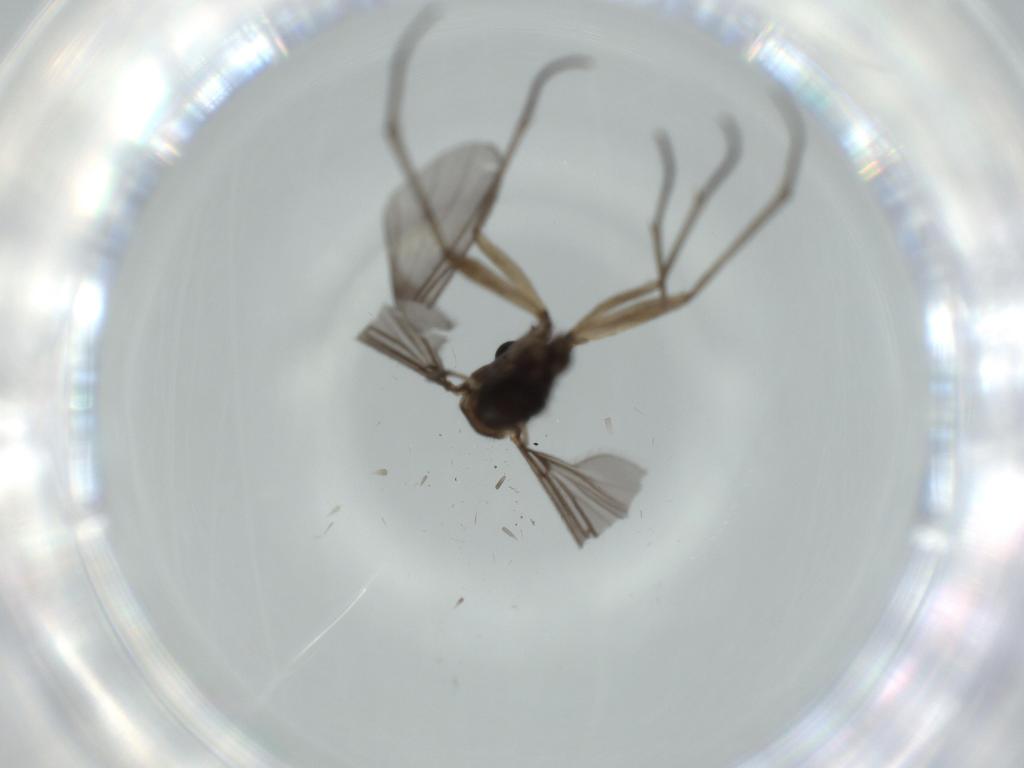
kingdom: Animalia
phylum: Arthropoda
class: Insecta
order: Diptera
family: Sciaridae
